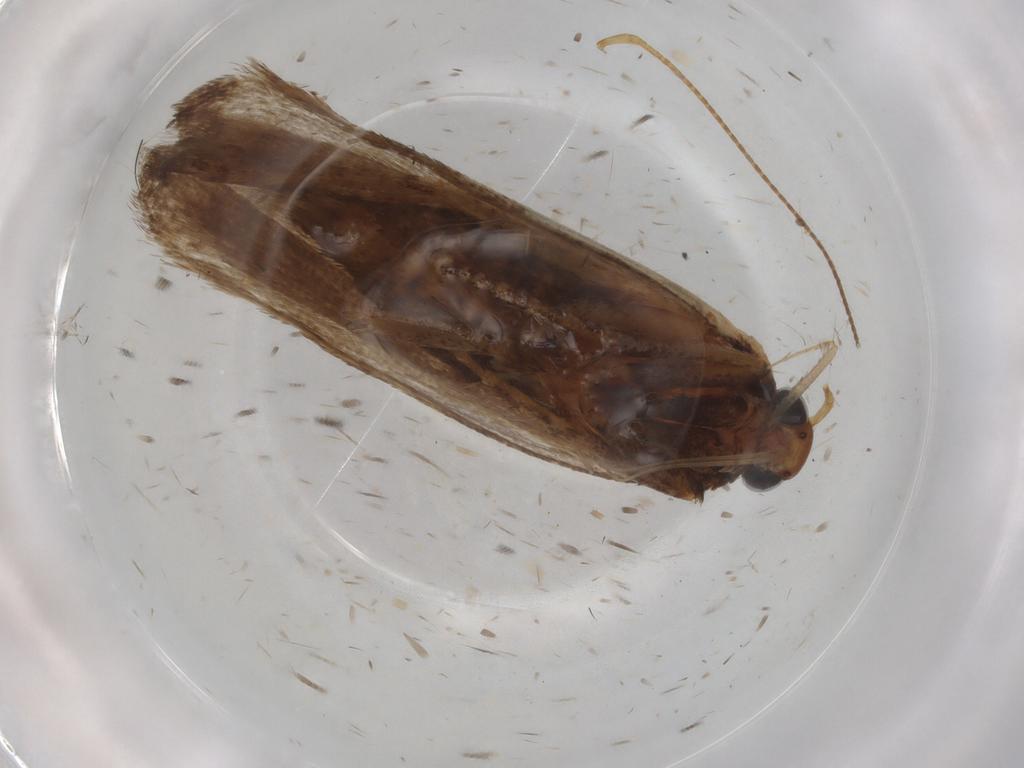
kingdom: Animalia
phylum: Arthropoda
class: Insecta
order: Lepidoptera
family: Gelechiidae
